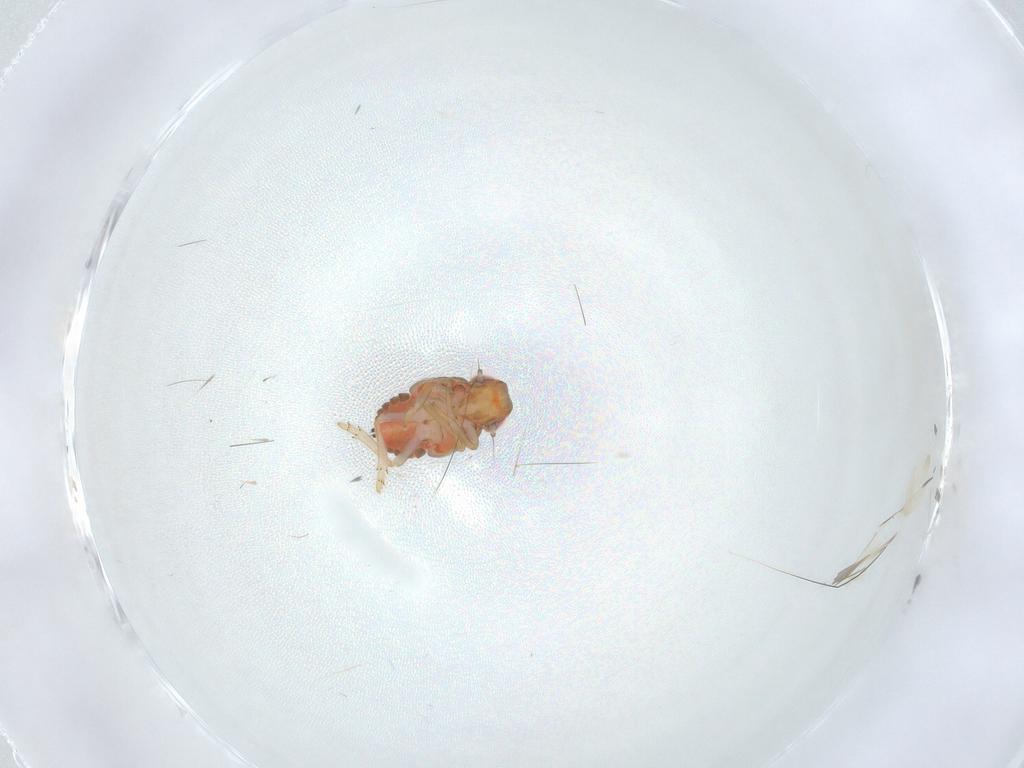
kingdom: Animalia
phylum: Arthropoda
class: Insecta
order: Hemiptera
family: Issidae
